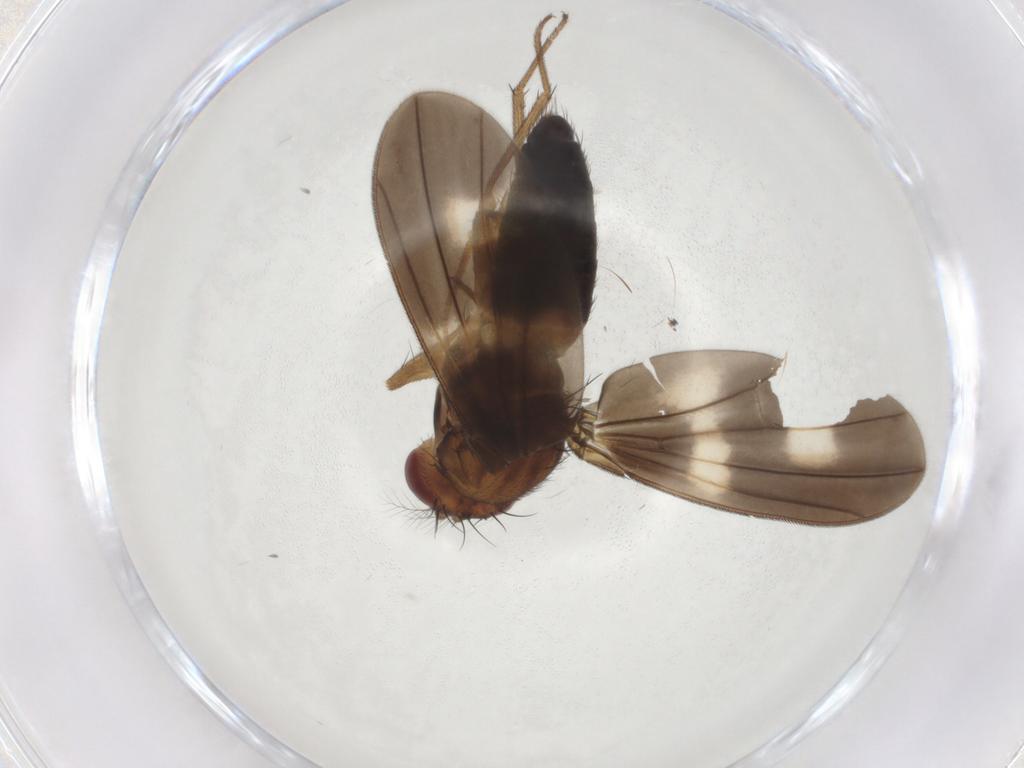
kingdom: Animalia
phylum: Arthropoda
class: Insecta
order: Diptera
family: Drosophilidae
